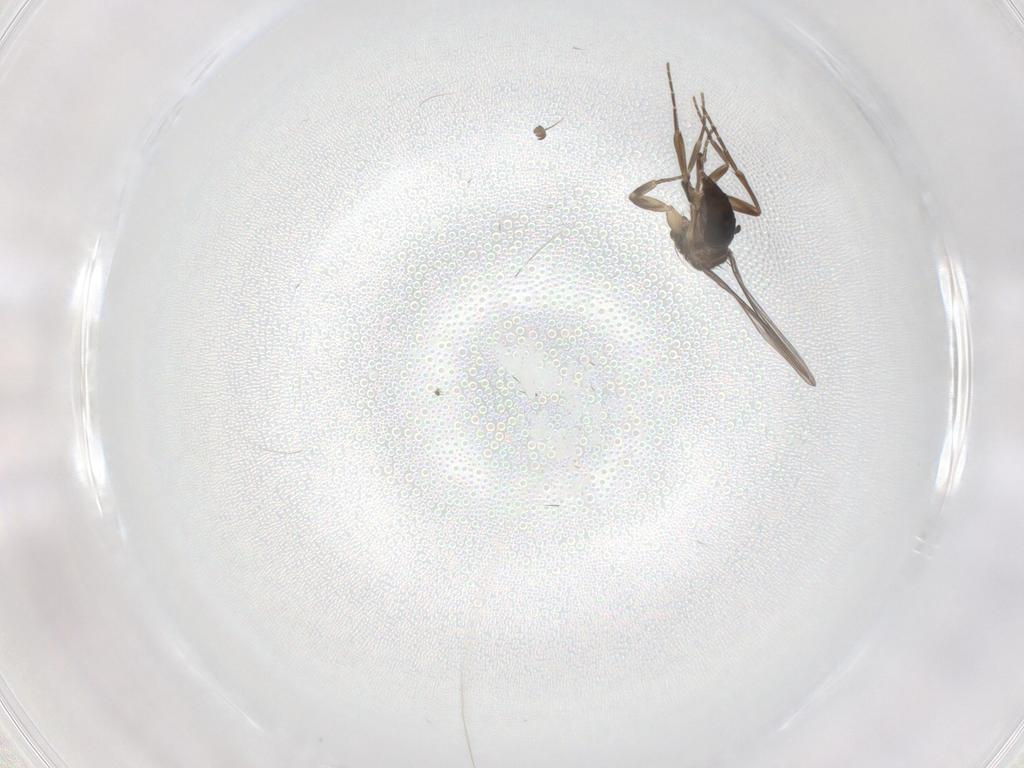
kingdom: Animalia
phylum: Arthropoda
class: Insecta
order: Diptera
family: Phoridae
